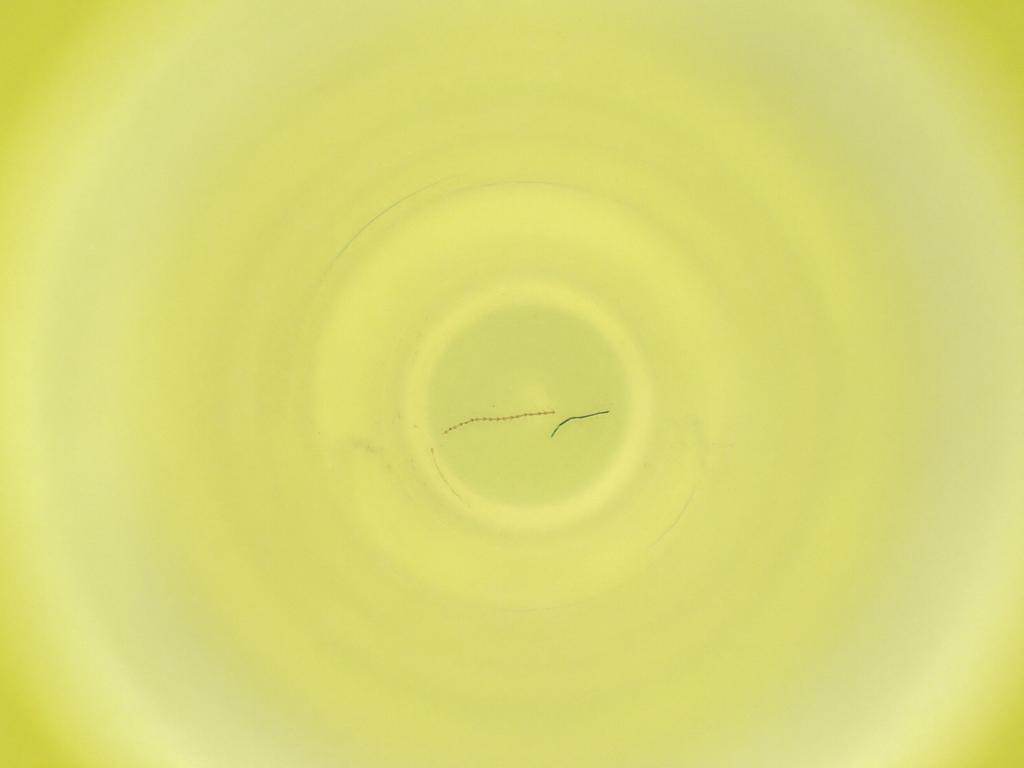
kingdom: Animalia
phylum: Arthropoda
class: Insecta
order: Diptera
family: Cecidomyiidae
